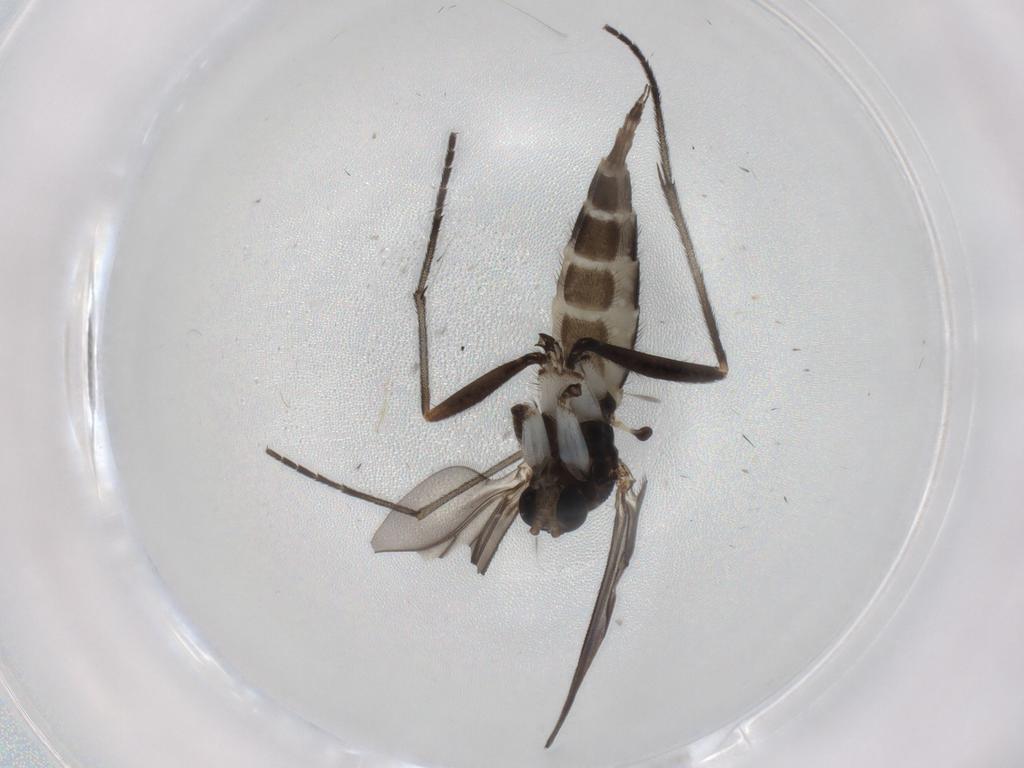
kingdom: Animalia
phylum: Arthropoda
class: Insecta
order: Diptera
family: Sciaridae
